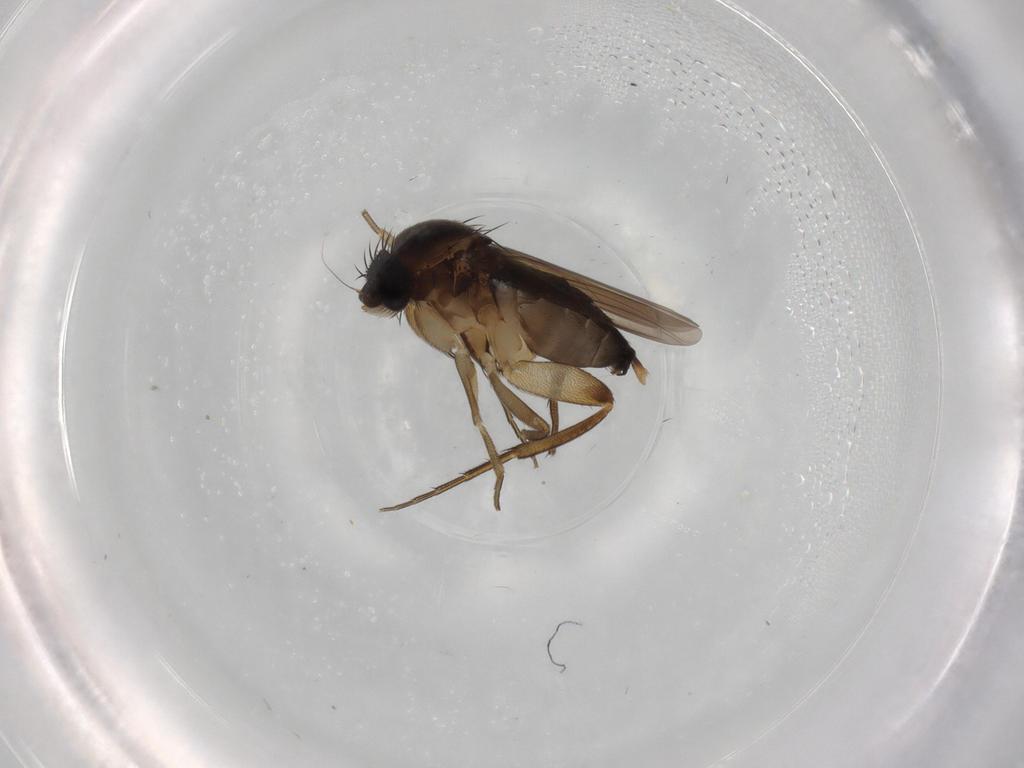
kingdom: Animalia
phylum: Arthropoda
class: Insecta
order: Diptera
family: Phoridae
